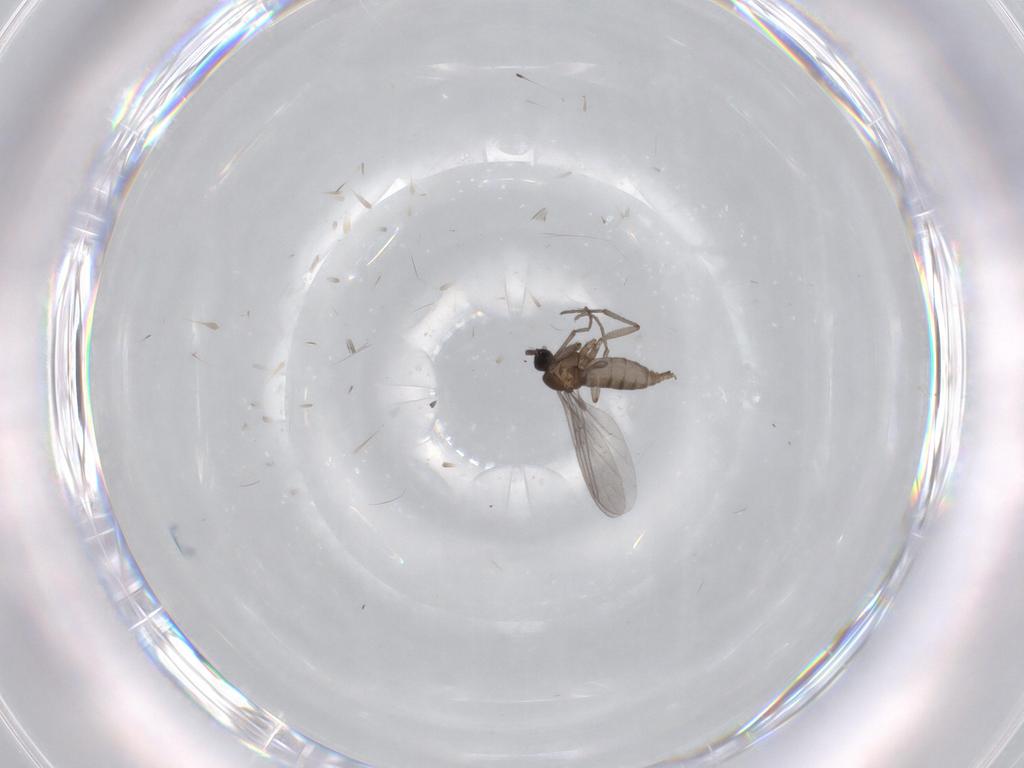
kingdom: Animalia
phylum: Arthropoda
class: Insecta
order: Diptera
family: Sciaridae
